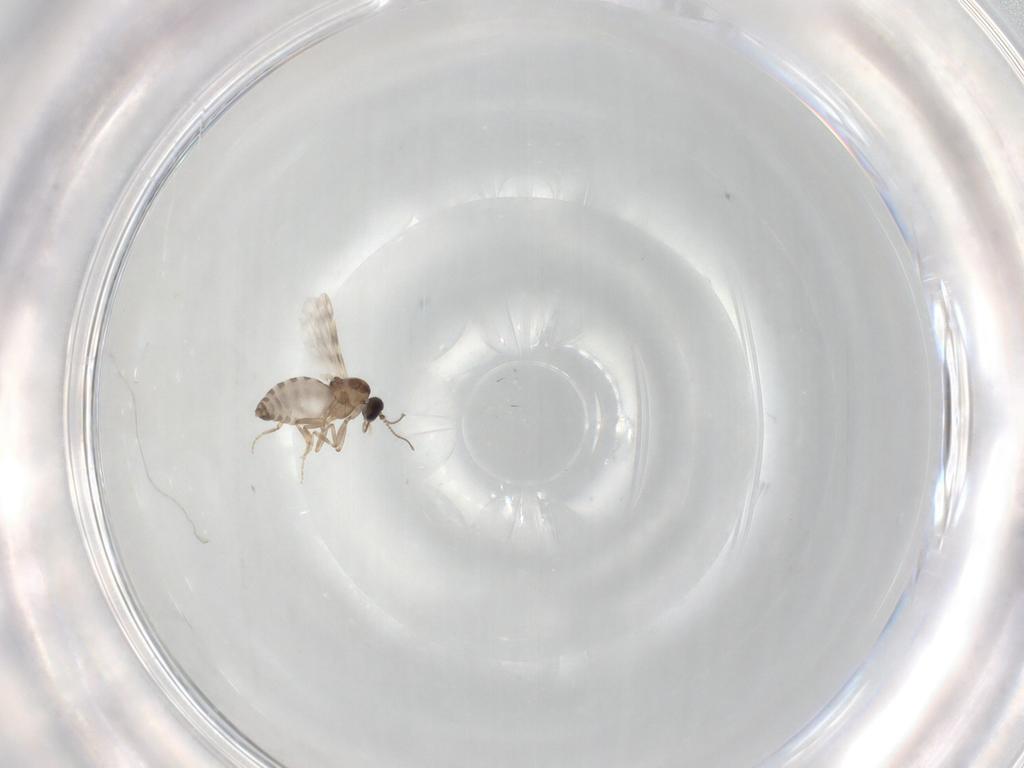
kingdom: Animalia
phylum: Arthropoda
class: Insecta
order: Diptera
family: Ceratopogonidae
